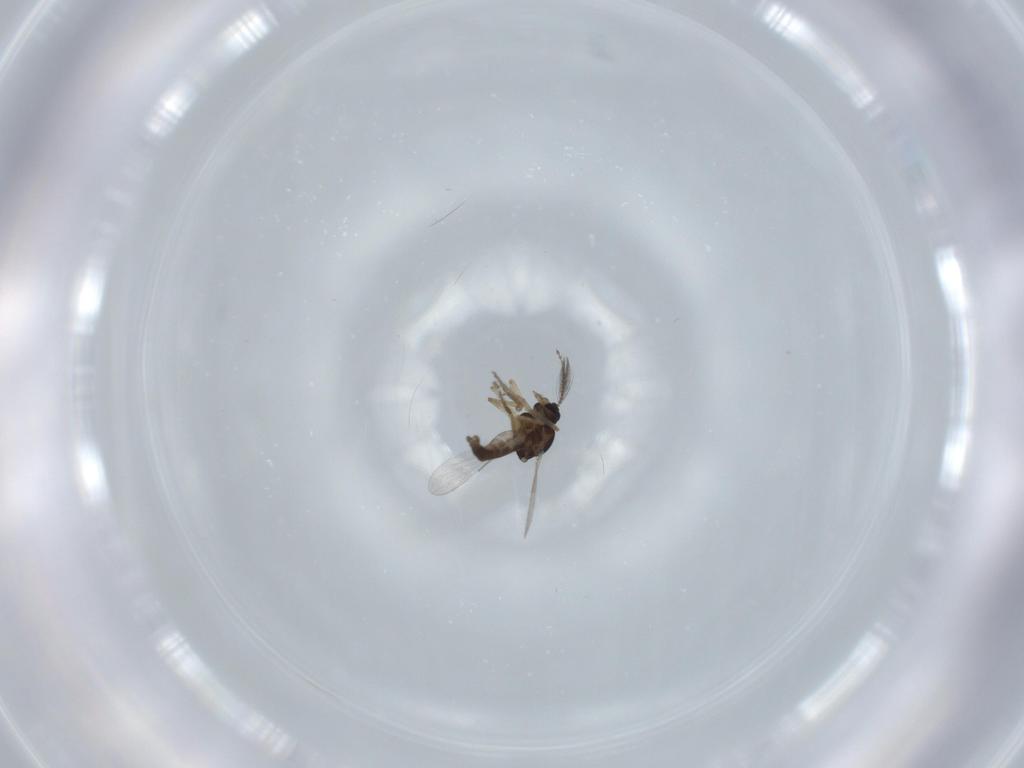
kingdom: Animalia
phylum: Arthropoda
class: Insecta
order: Diptera
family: Ceratopogonidae
